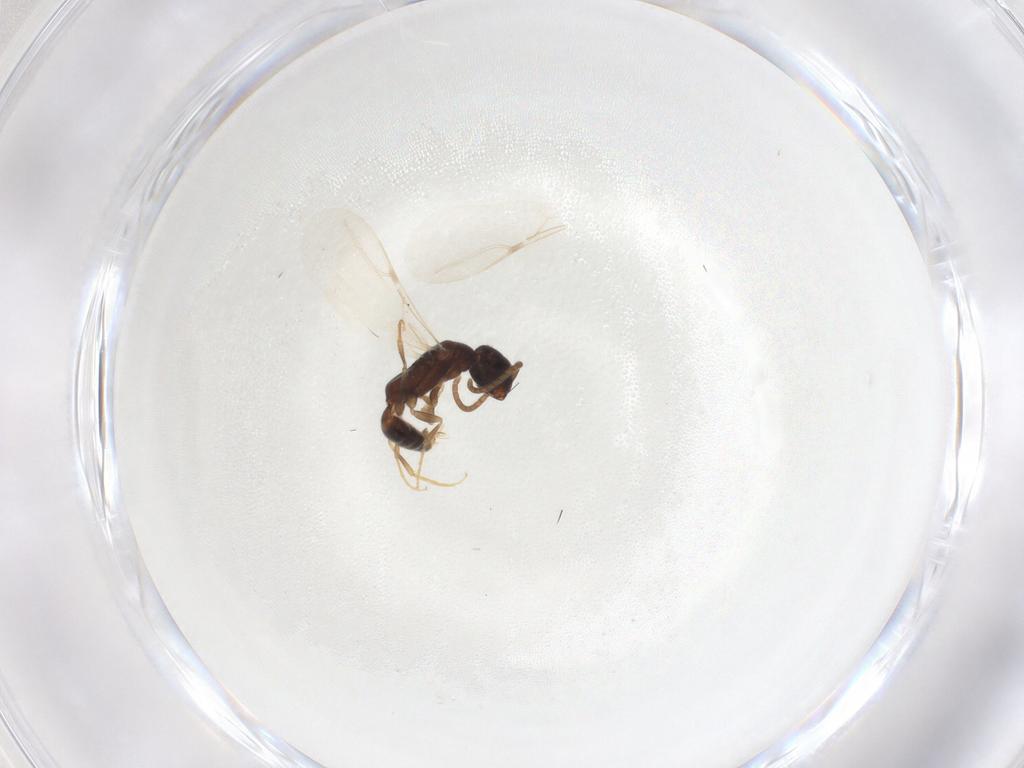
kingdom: Animalia
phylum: Arthropoda
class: Insecta
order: Hymenoptera
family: Bethylidae
